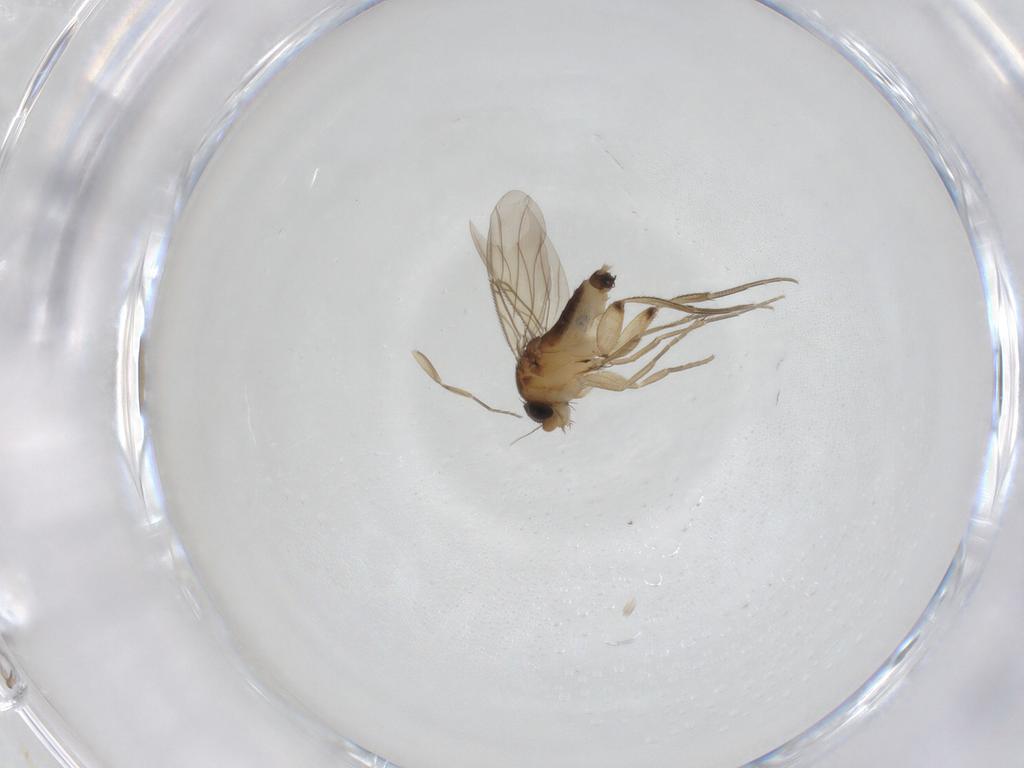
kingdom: Animalia
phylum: Arthropoda
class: Insecta
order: Diptera
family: Phoridae
